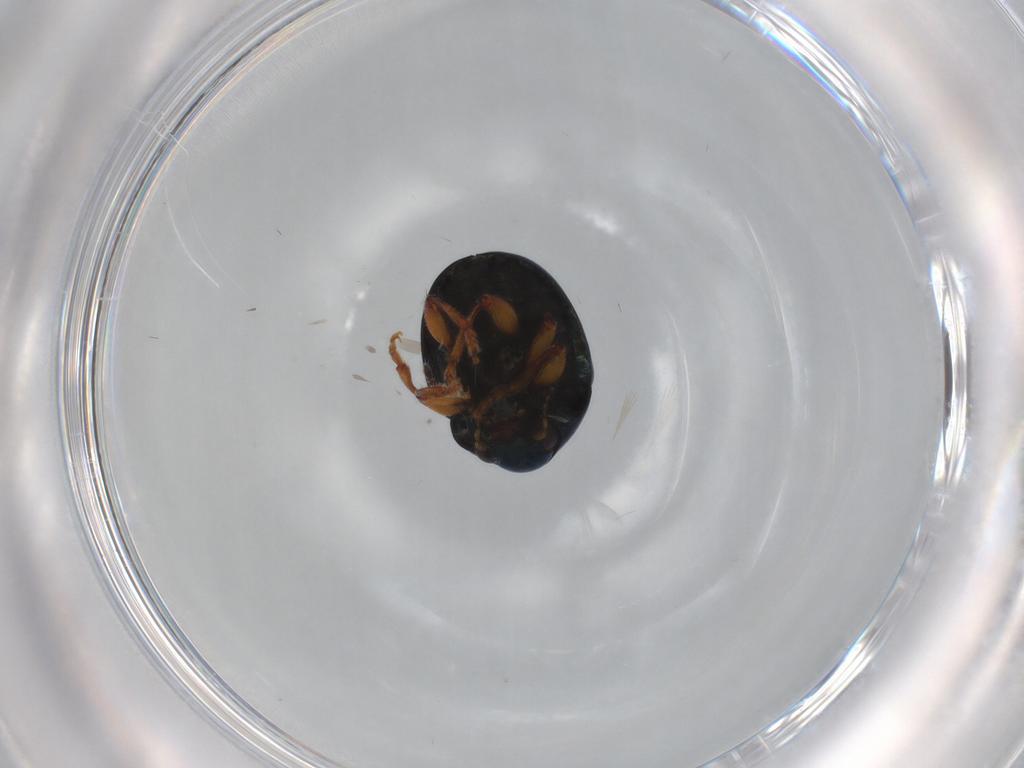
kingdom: Animalia
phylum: Arthropoda
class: Insecta
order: Coleoptera
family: Chrysomelidae
